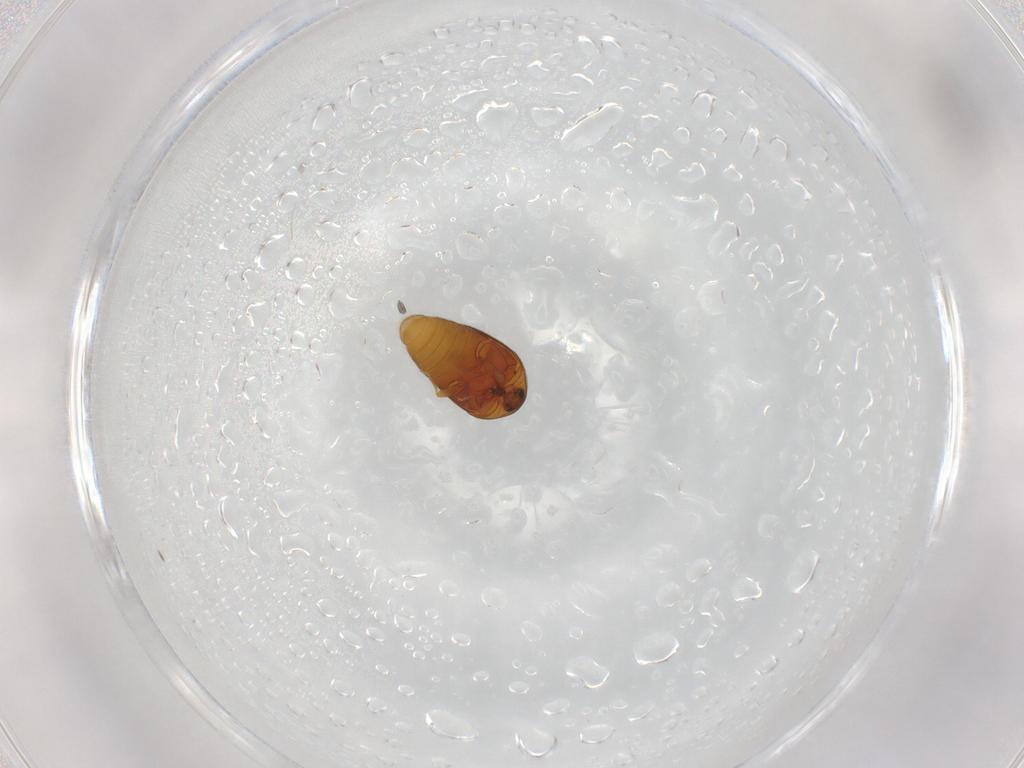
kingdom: Animalia
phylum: Arthropoda
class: Insecta
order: Coleoptera
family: Corylophidae
